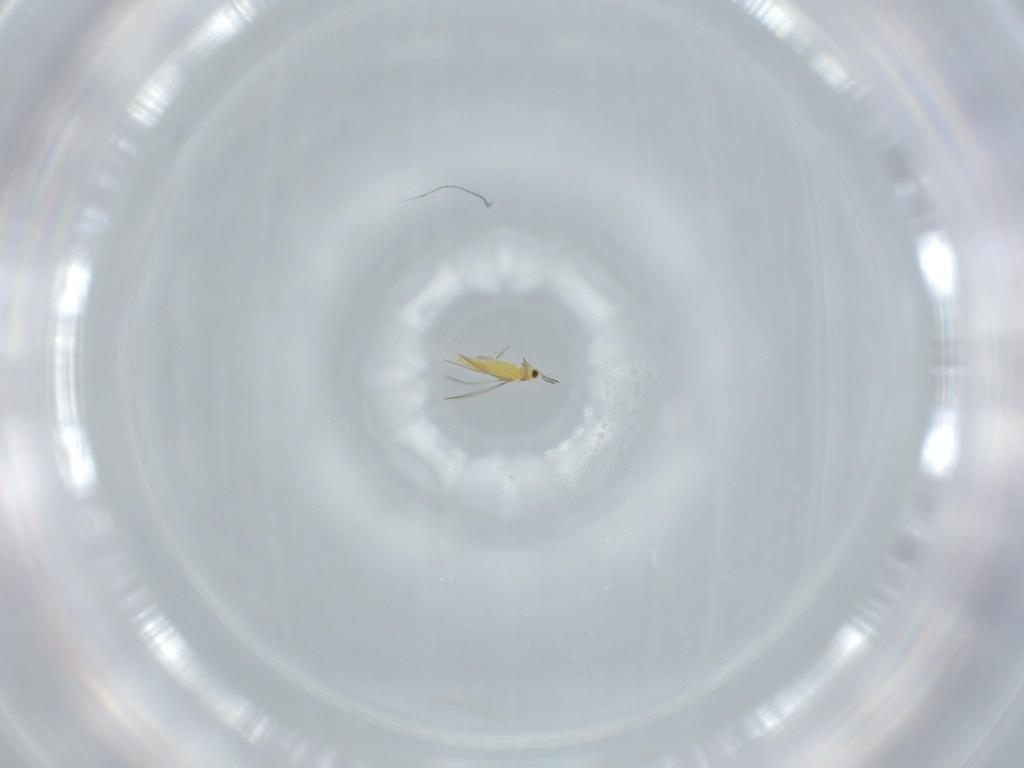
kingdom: Animalia
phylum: Arthropoda
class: Insecta
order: Thysanoptera
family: Thripidae
